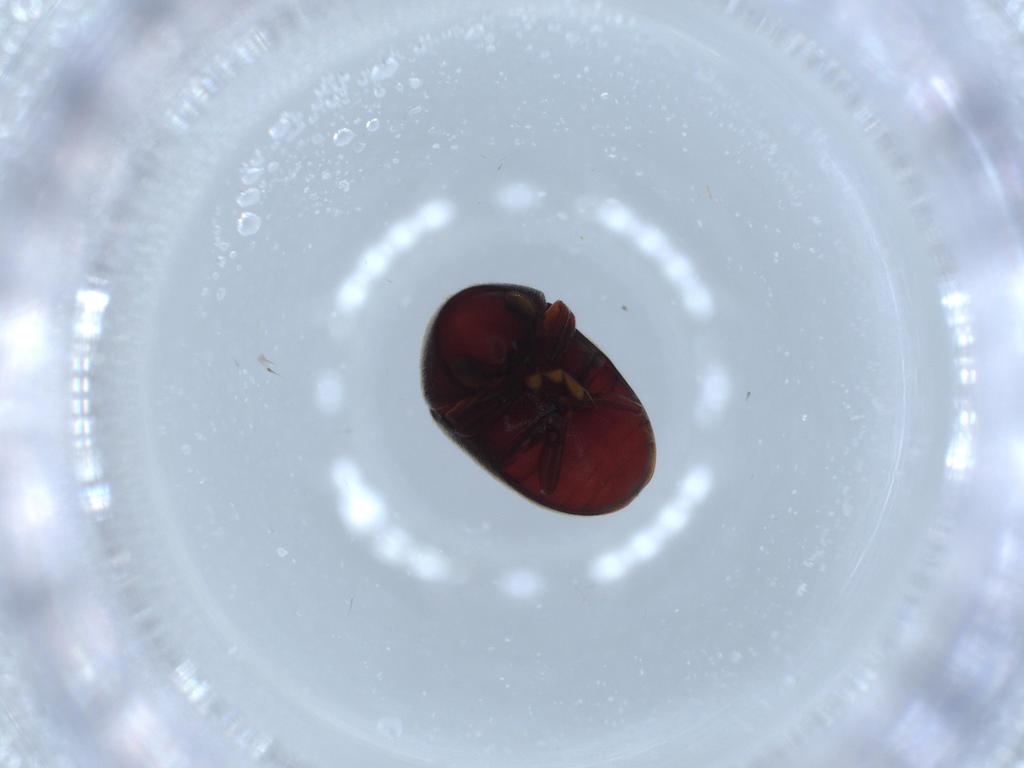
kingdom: Animalia
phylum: Arthropoda
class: Insecta
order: Coleoptera
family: Ptinidae
